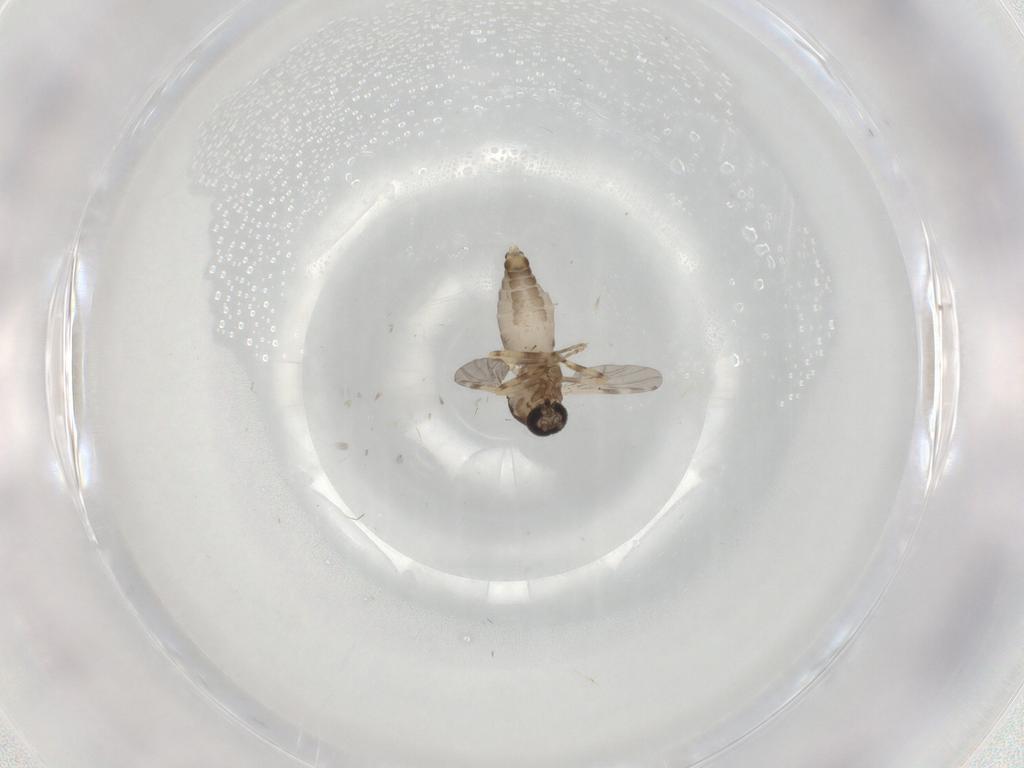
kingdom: Animalia
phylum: Arthropoda
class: Insecta
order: Diptera
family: Ceratopogonidae
